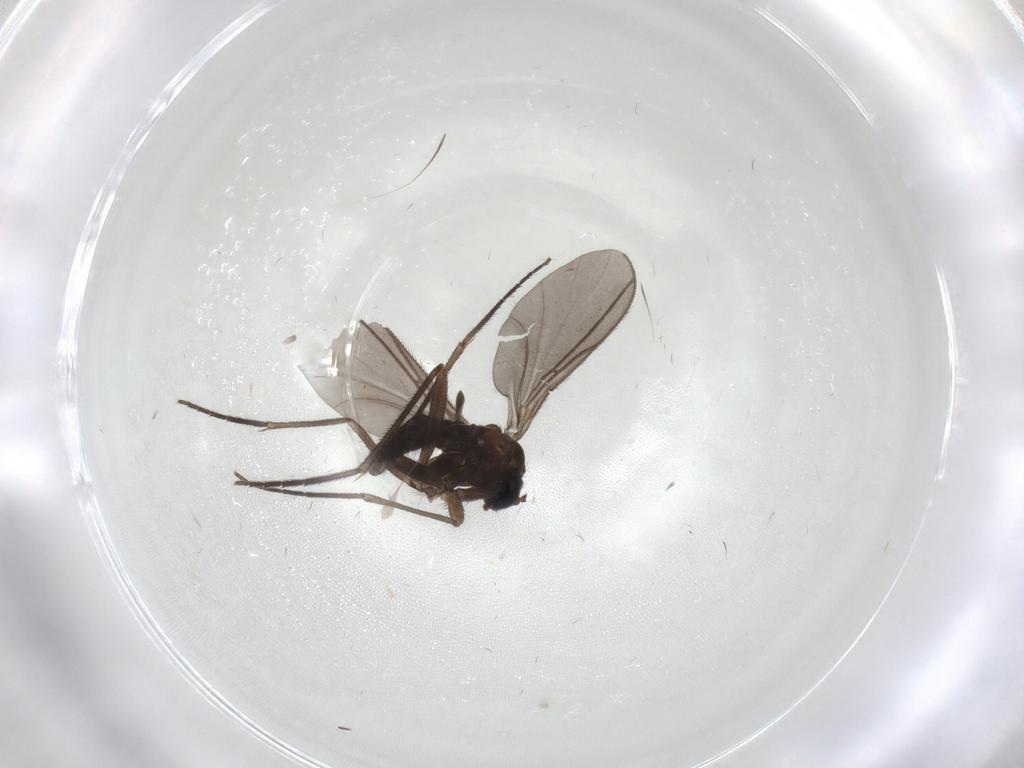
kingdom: Animalia
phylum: Arthropoda
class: Insecta
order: Diptera
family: Sciaridae
